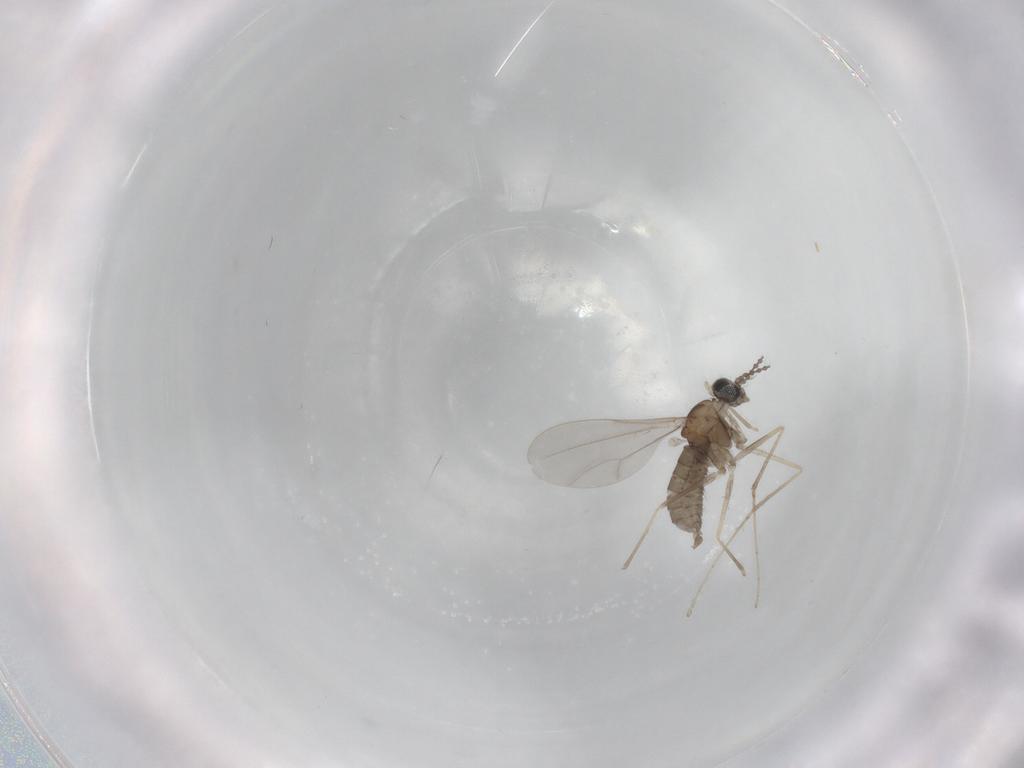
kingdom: Animalia
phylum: Arthropoda
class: Insecta
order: Diptera
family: Cecidomyiidae
